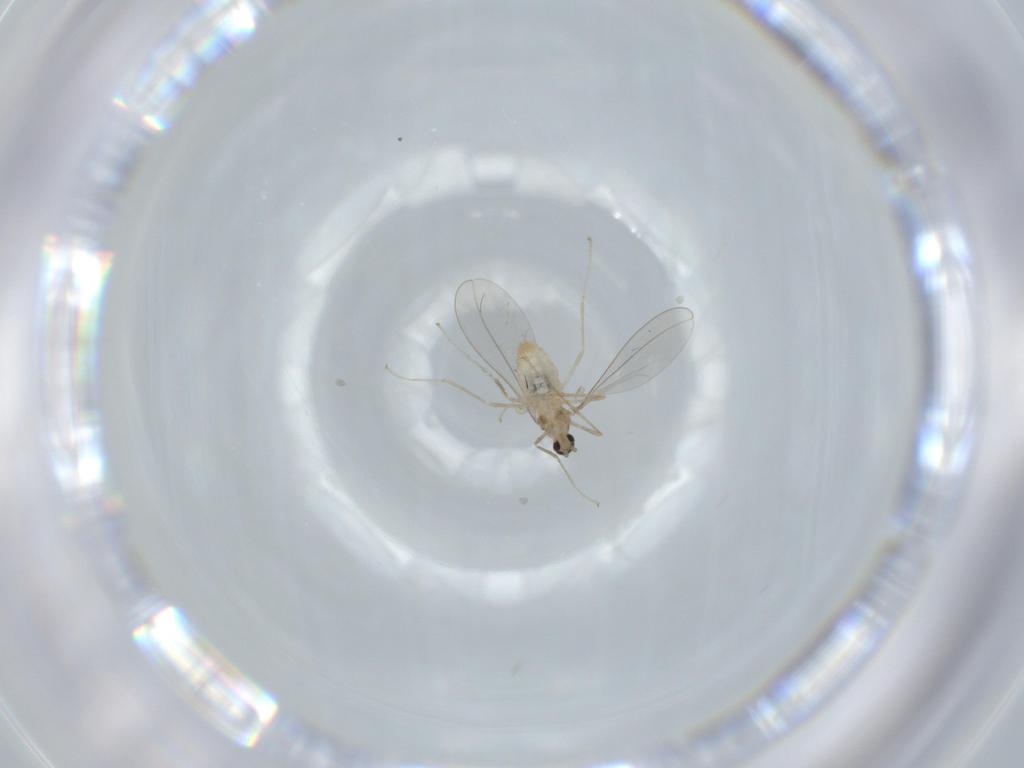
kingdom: Animalia
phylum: Arthropoda
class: Insecta
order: Diptera
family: Cecidomyiidae
